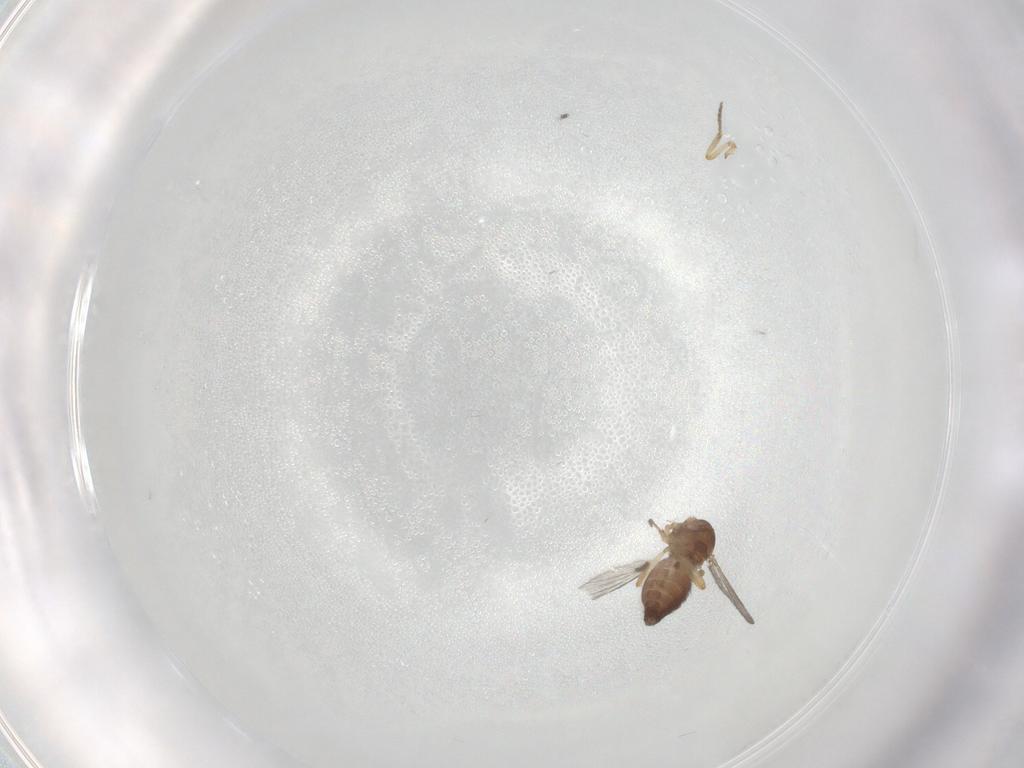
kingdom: Animalia
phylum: Arthropoda
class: Insecta
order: Diptera
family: Ceratopogonidae
